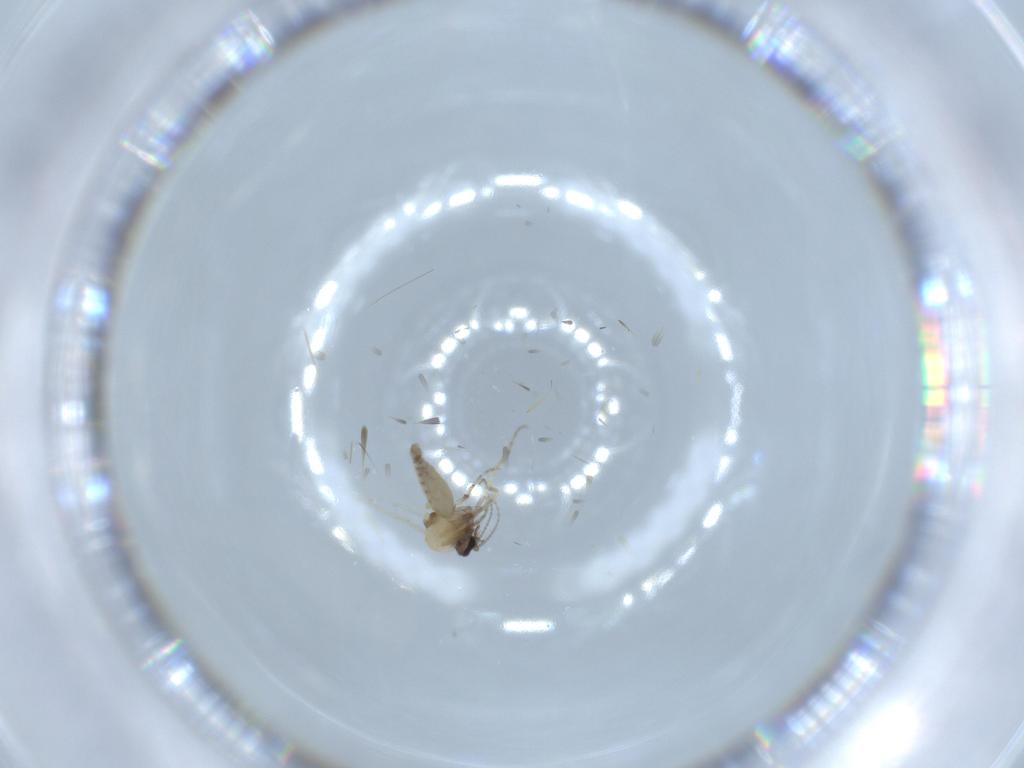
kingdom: Animalia
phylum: Arthropoda
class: Insecta
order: Diptera
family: Ceratopogonidae
